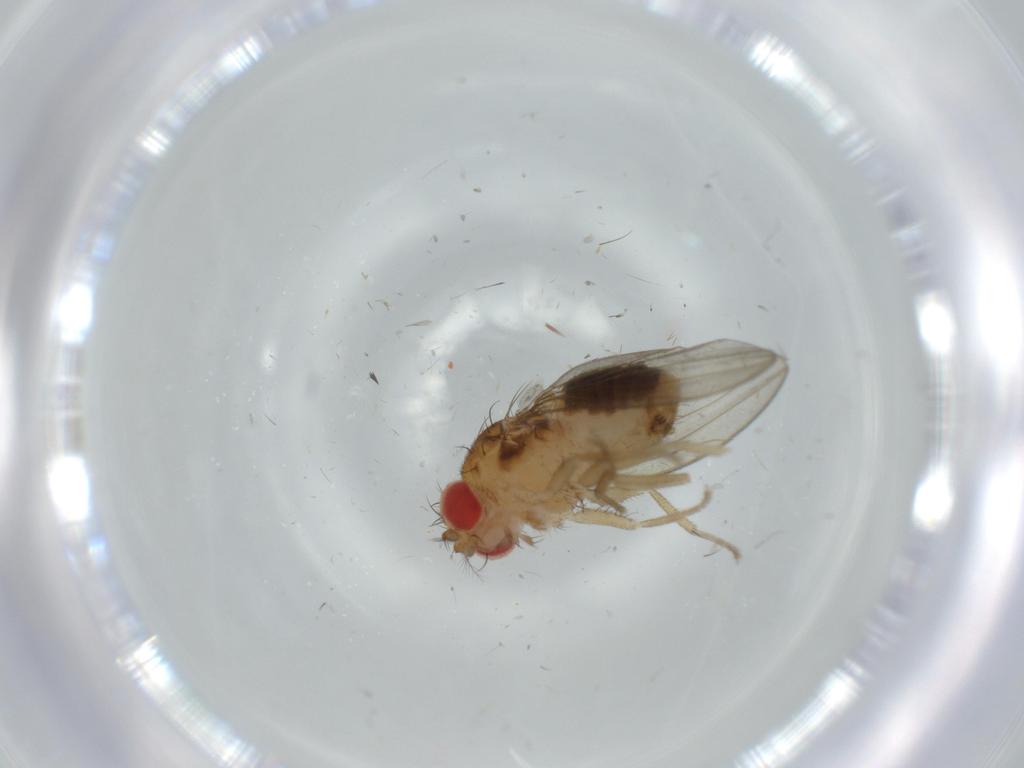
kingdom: Animalia
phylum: Arthropoda
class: Insecta
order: Diptera
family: Drosophilidae
